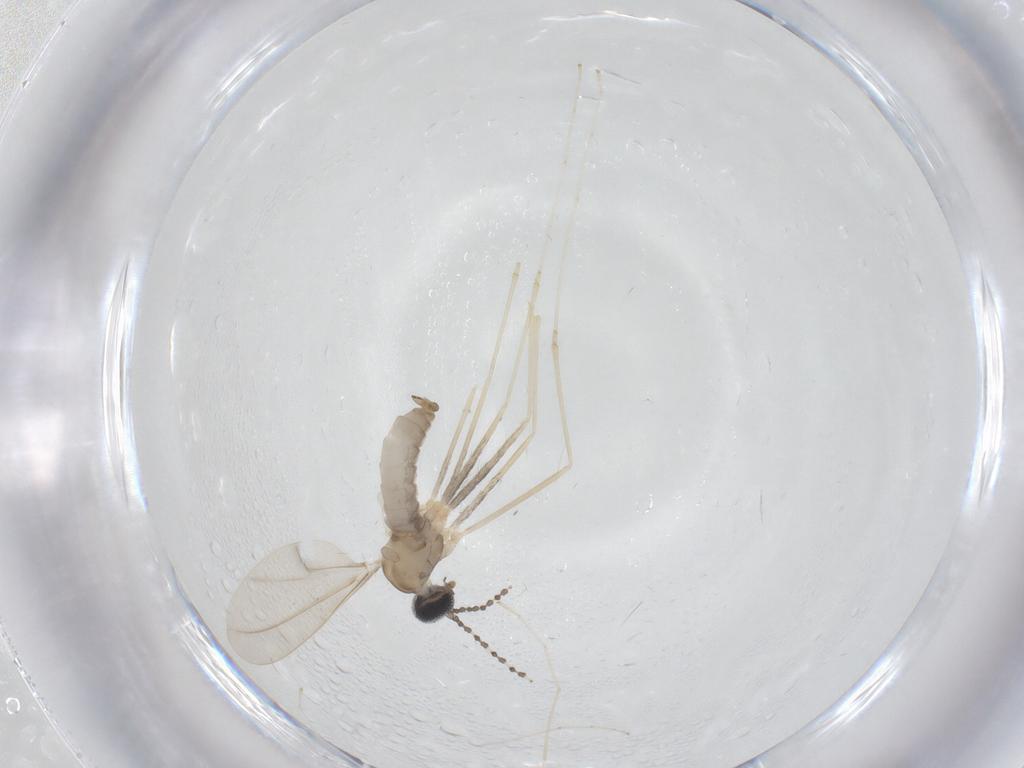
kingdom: Animalia
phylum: Arthropoda
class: Insecta
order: Diptera
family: Cecidomyiidae
